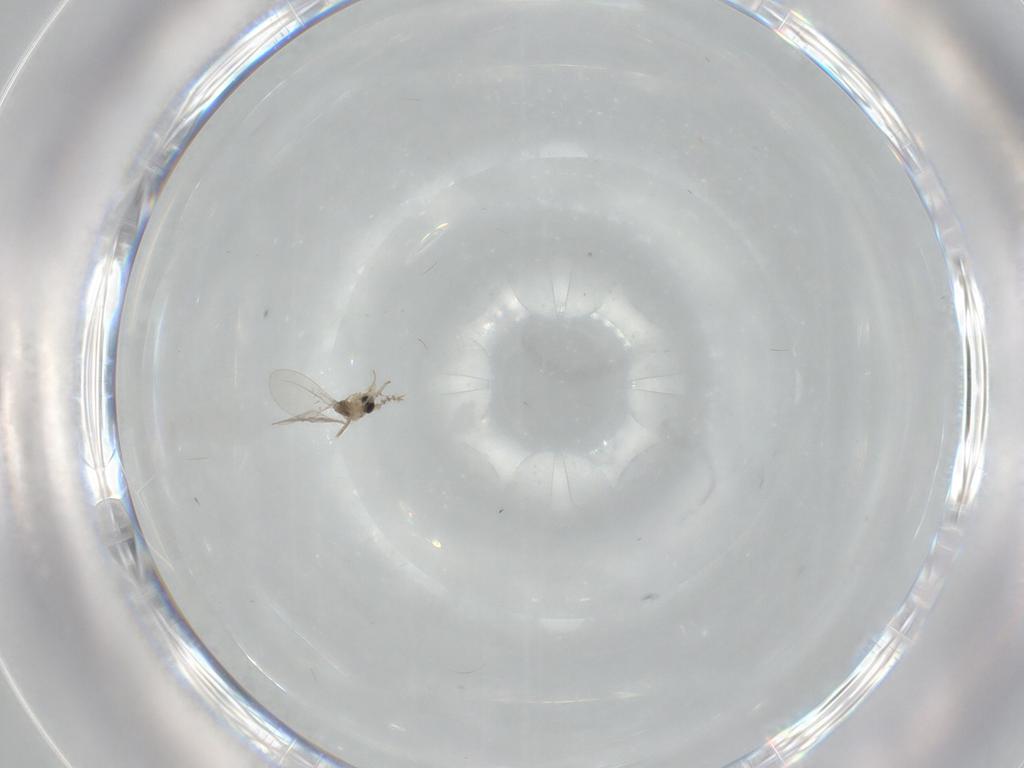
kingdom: Animalia
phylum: Arthropoda
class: Insecta
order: Diptera
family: Cecidomyiidae
